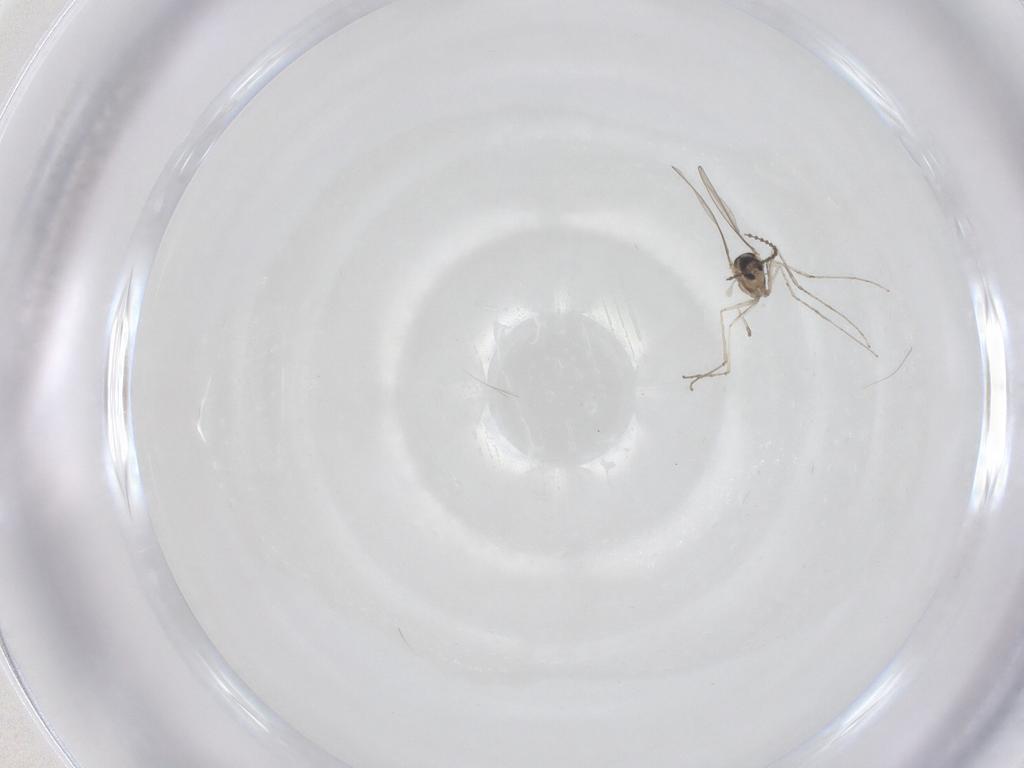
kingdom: Animalia
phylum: Arthropoda
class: Insecta
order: Diptera
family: Cecidomyiidae
